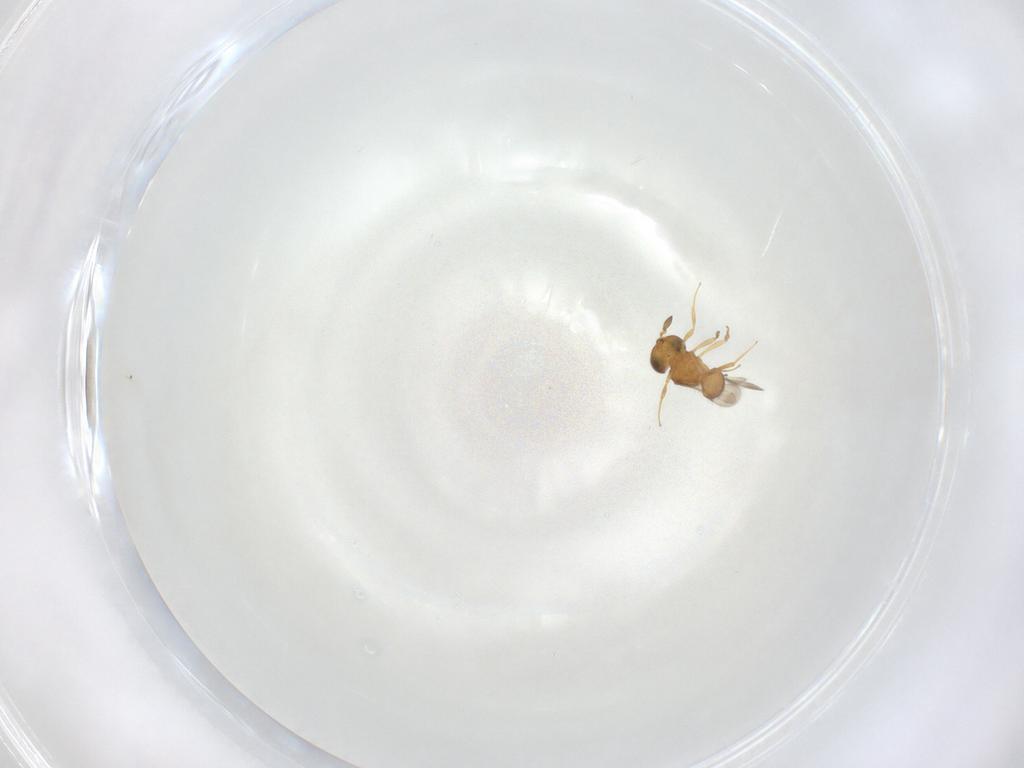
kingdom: Animalia
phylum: Arthropoda
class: Insecta
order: Hymenoptera
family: Scelionidae
